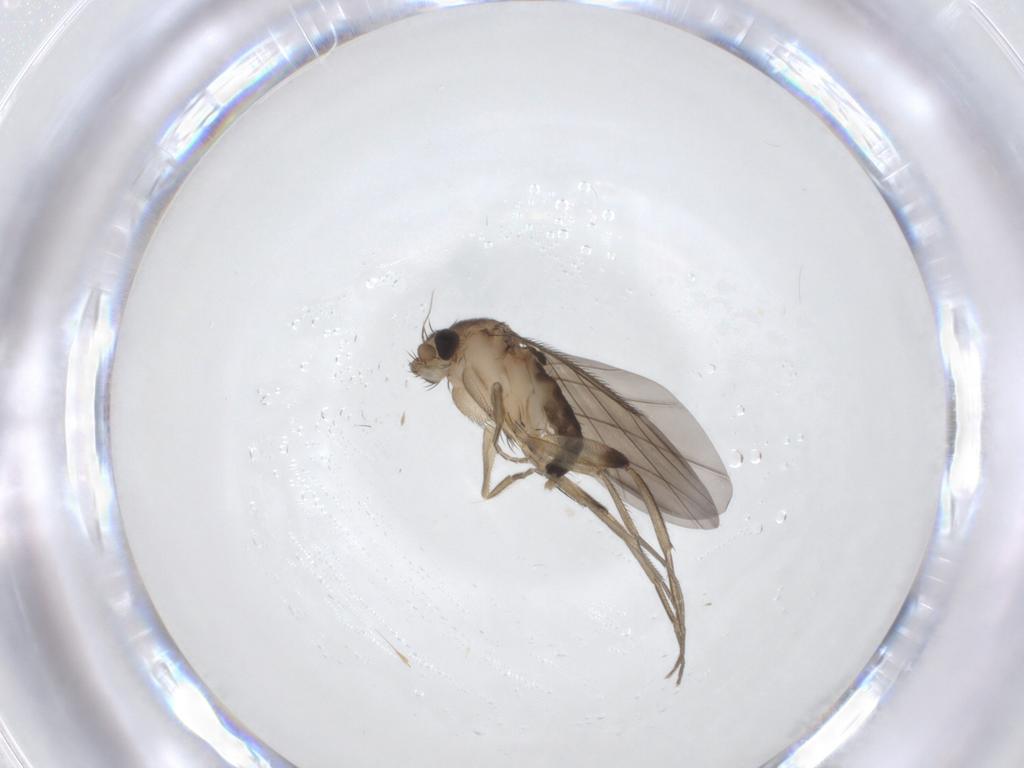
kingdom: Animalia
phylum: Arthropoda
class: Insecta
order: Diptera
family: Phoridae
